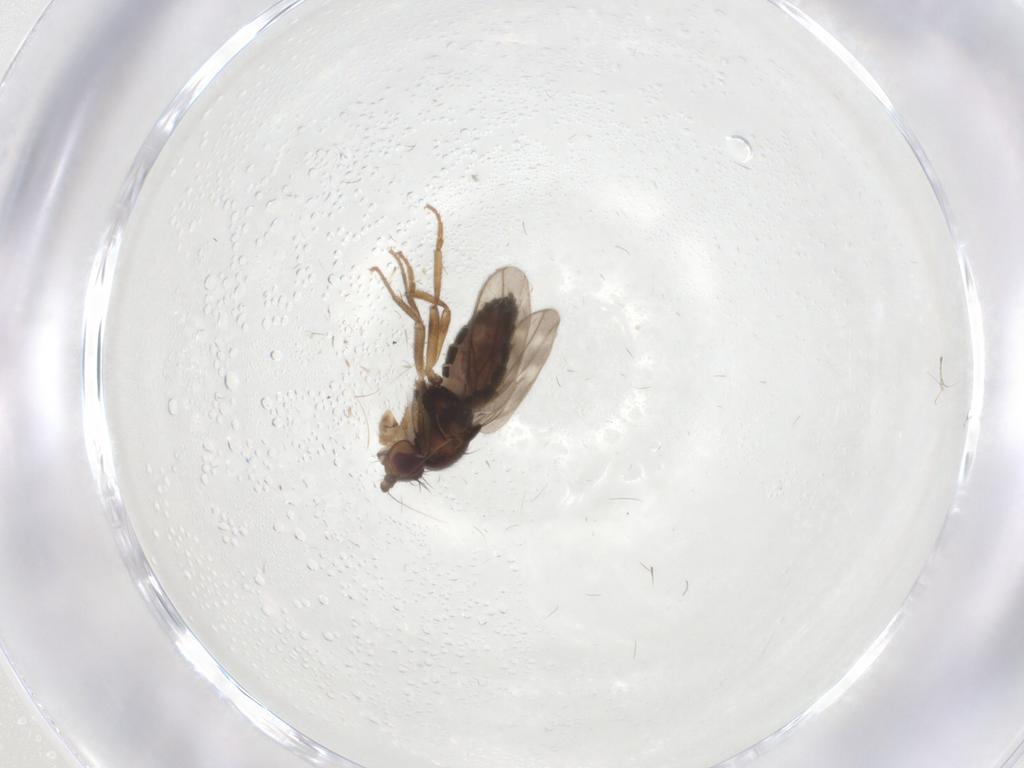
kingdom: Animalia
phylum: Arthropoda
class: Insecta
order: Diptera
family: Sphaeroceridae
